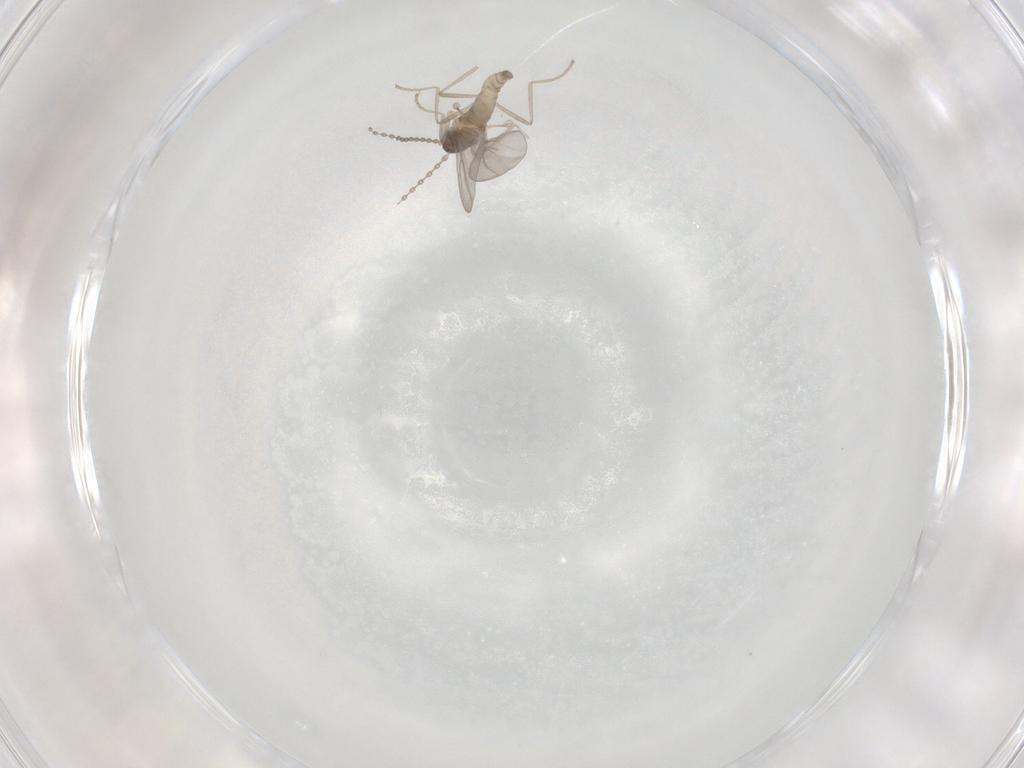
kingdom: Animalia
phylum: Arthropoda
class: Insecta
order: Diptera
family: Cecidomyiidae
